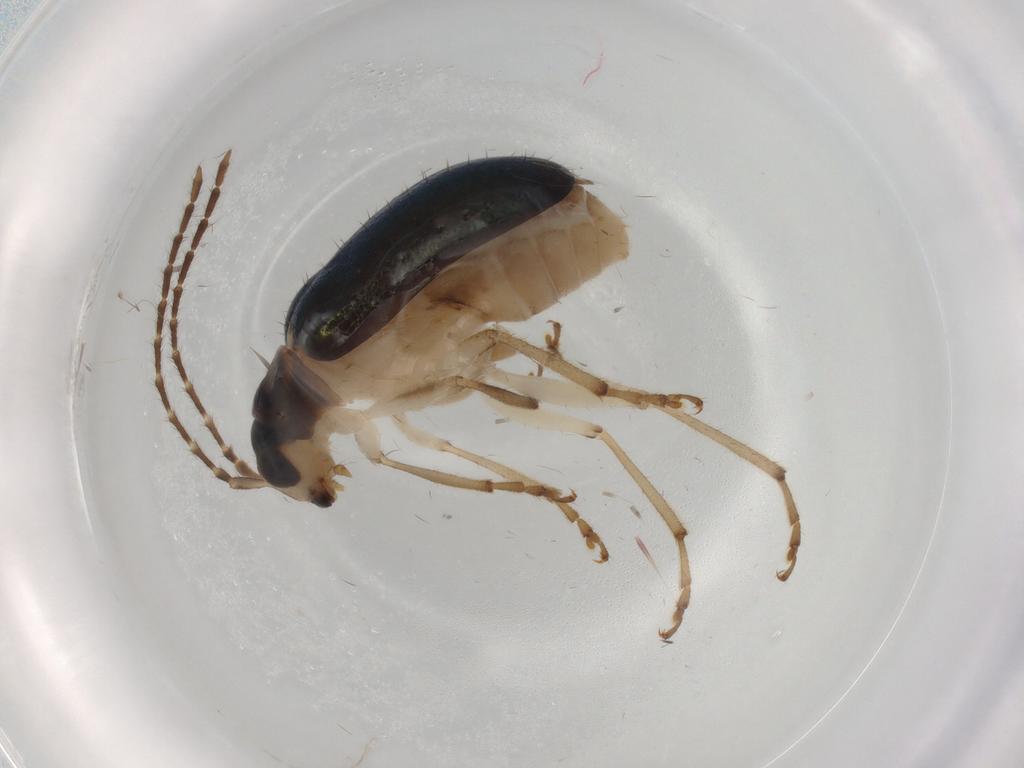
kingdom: Animalia
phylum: Arthropoda
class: Insecta
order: Coleoptera
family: Chrysomelidae
